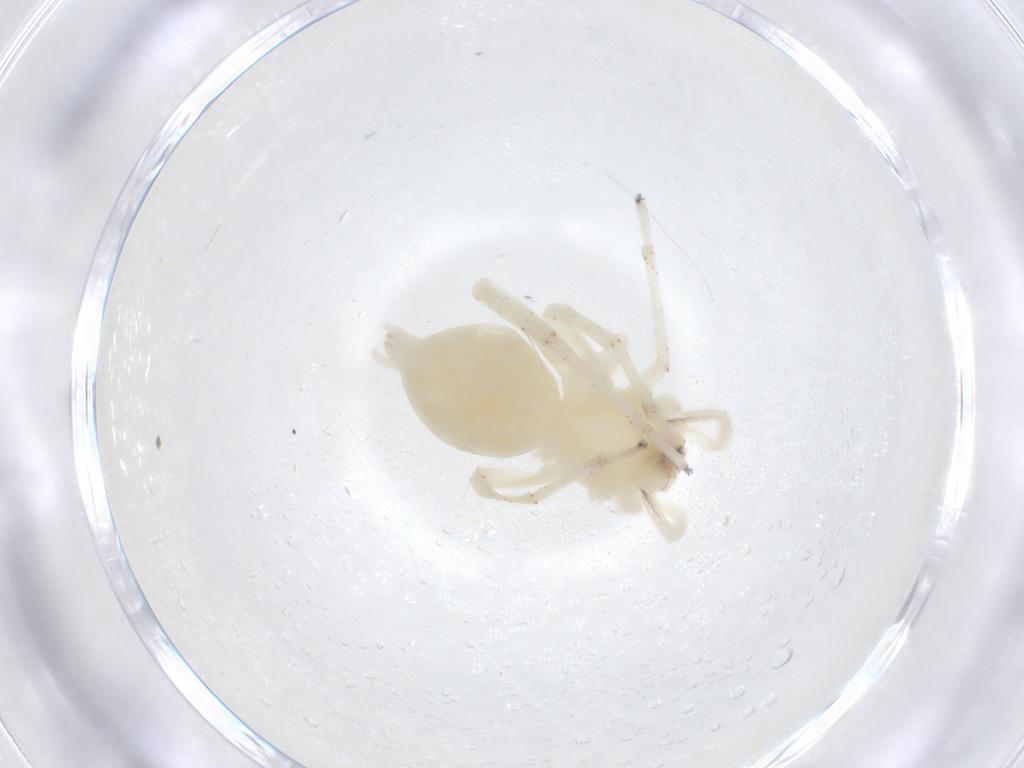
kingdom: Animalia
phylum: Arthropoda
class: Arachnida
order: Araneae
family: Anyphaenidae
